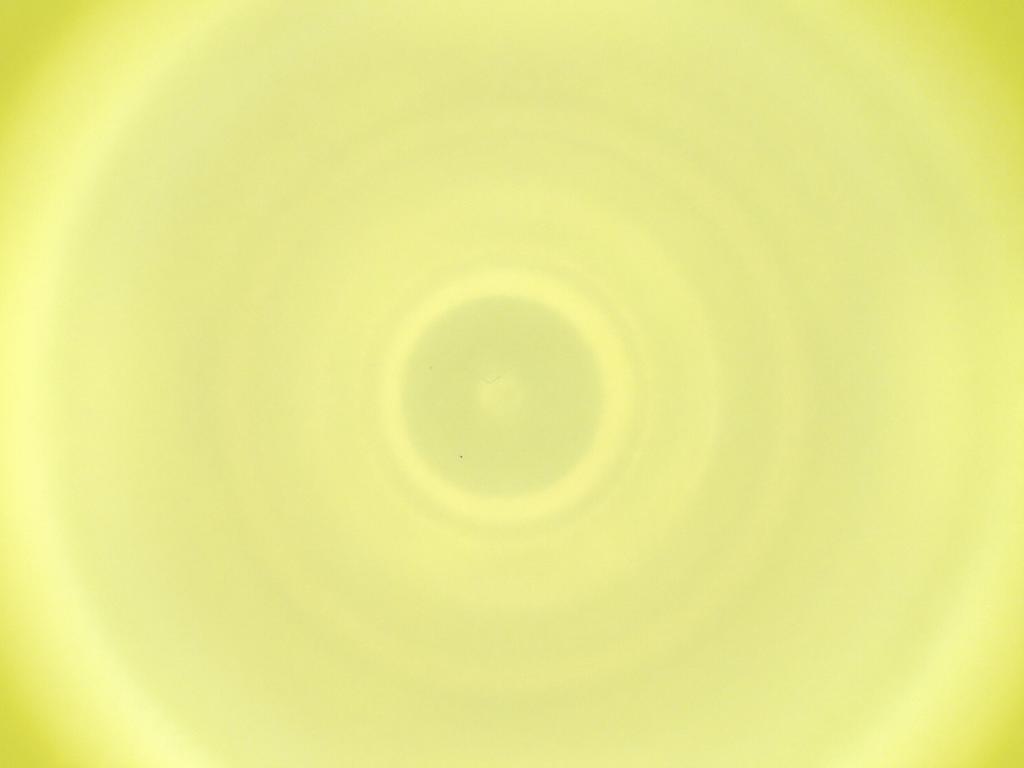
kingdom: Animalia
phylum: Arthropoda
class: Insecta
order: Diptera
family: Cecidomyiidae
